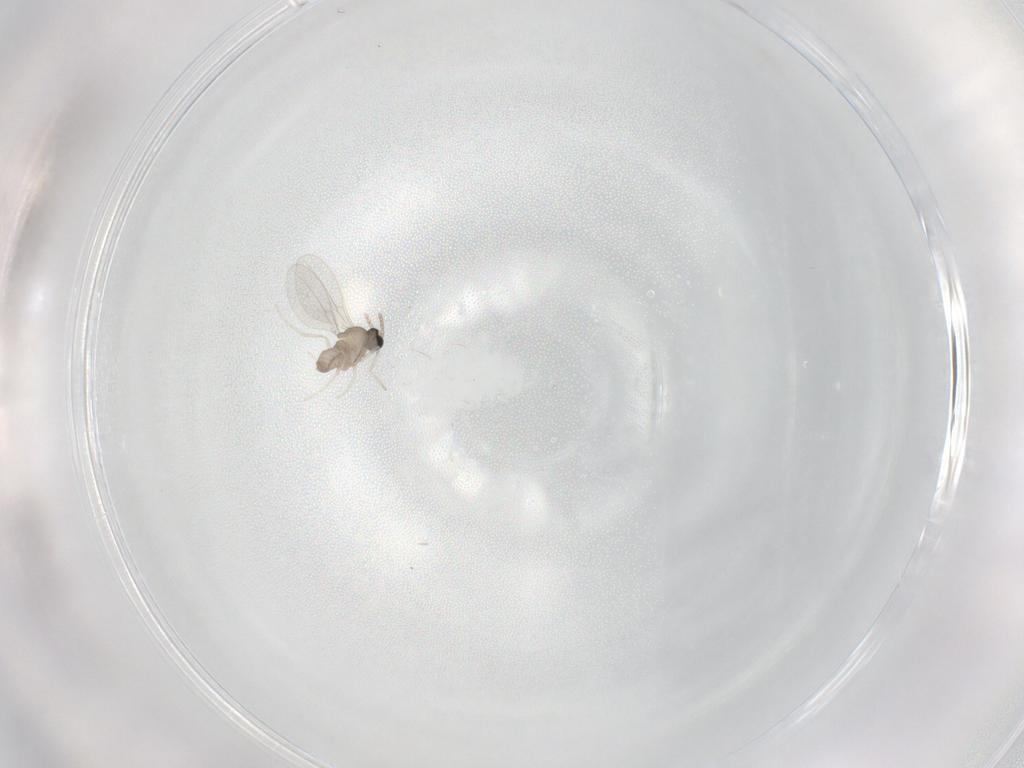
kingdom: Animalia
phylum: Arthropoda
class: Insecta
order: Diptera
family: Cecidomyiidae
